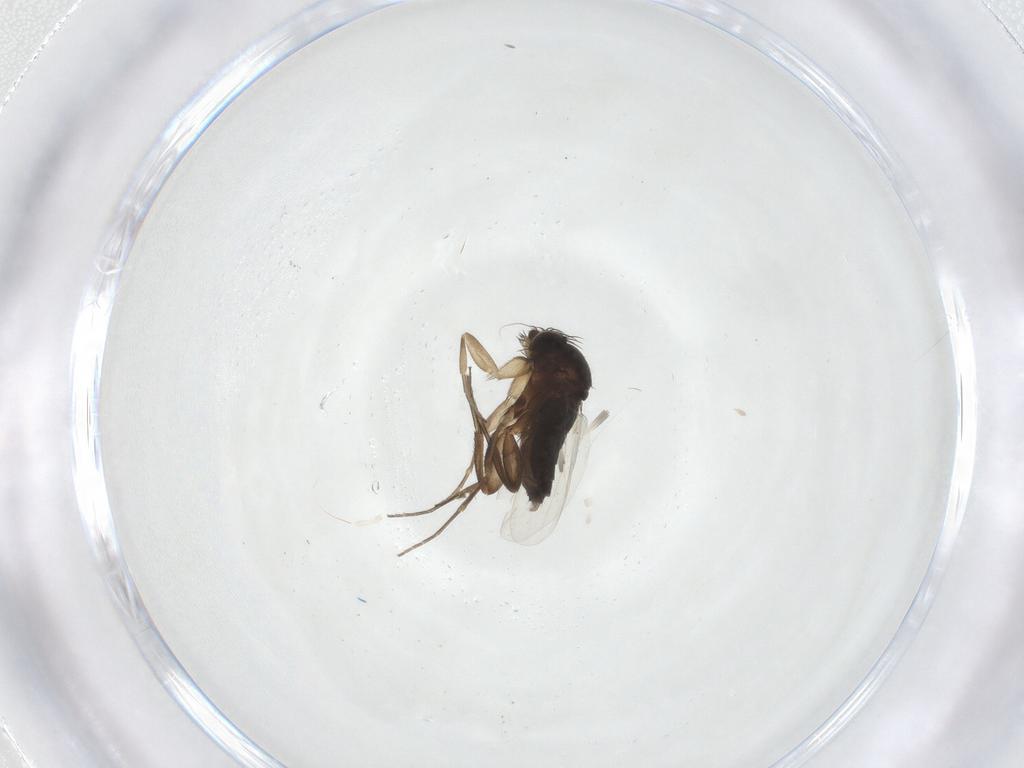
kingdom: Animalia
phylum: Arthropoda
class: Insecta
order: Diptera
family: Phoridae
